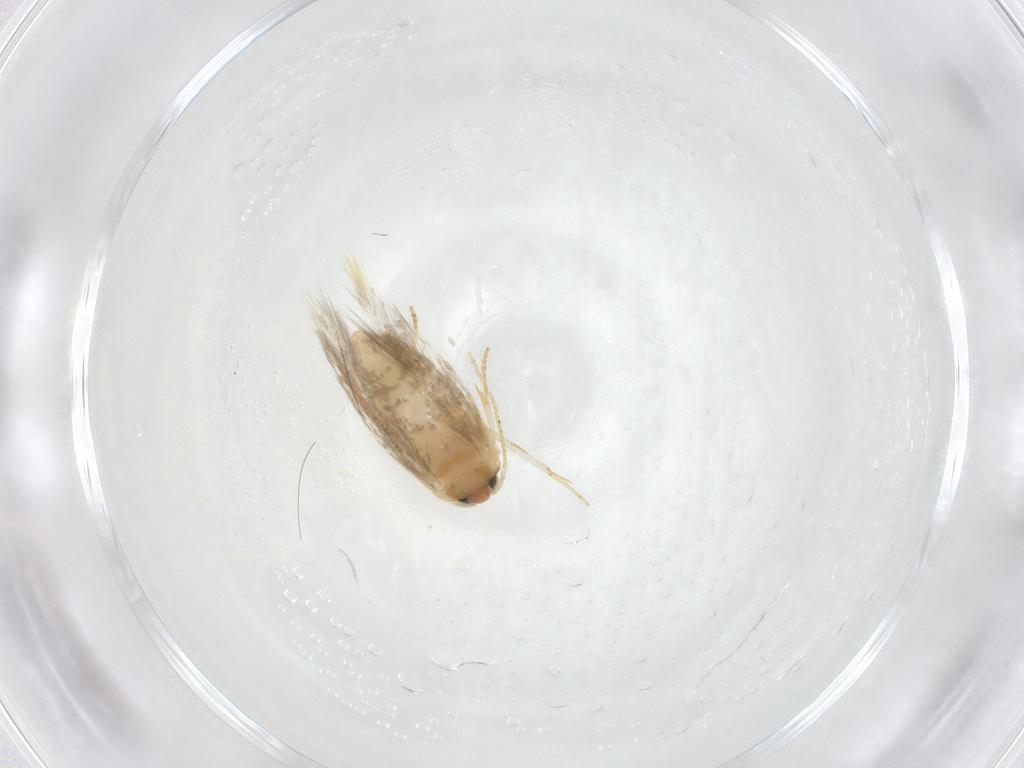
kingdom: Animalia
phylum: Arthropoda
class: Insecta
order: Lepidoptera
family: Nepticulidae
